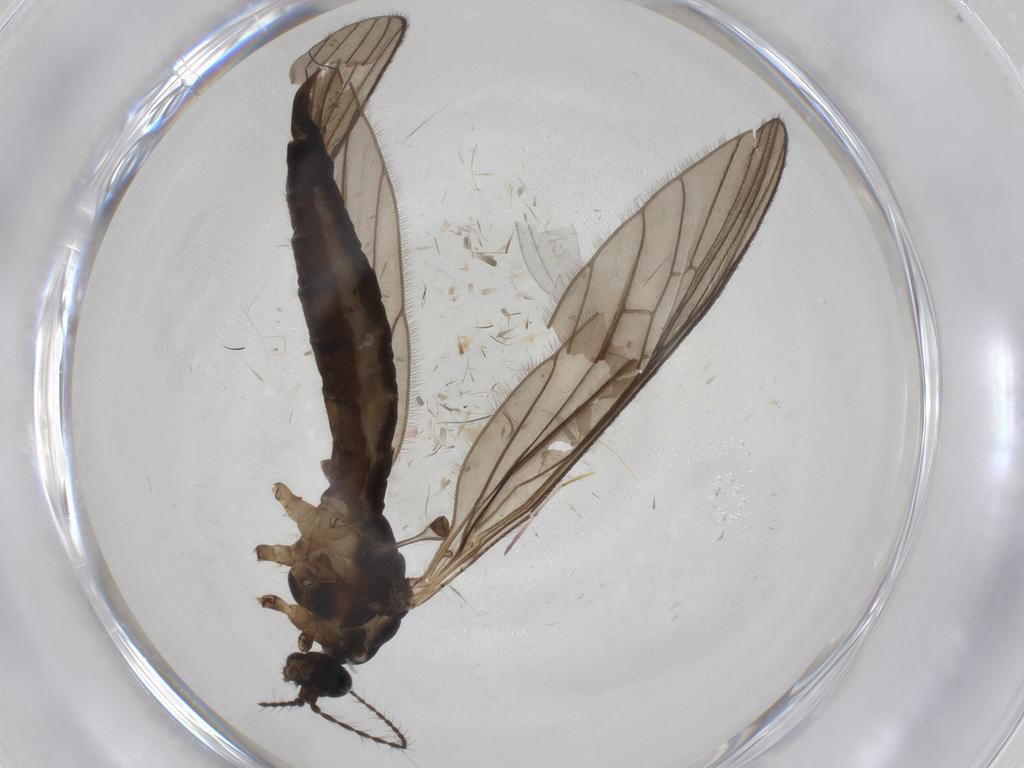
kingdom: Animalia
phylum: Arthropoda
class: Insecta
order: Diptera
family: Limoniidae
